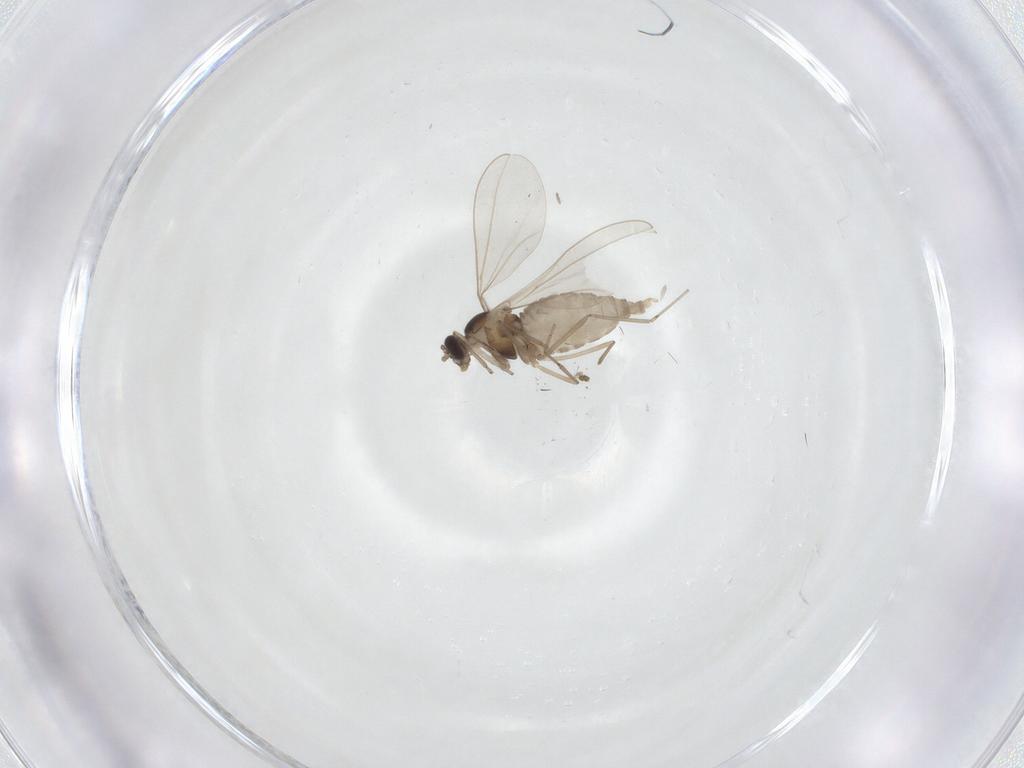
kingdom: Animalia
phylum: Arthropoda
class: Insecta
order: Diptera
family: Cecidomyiidae
